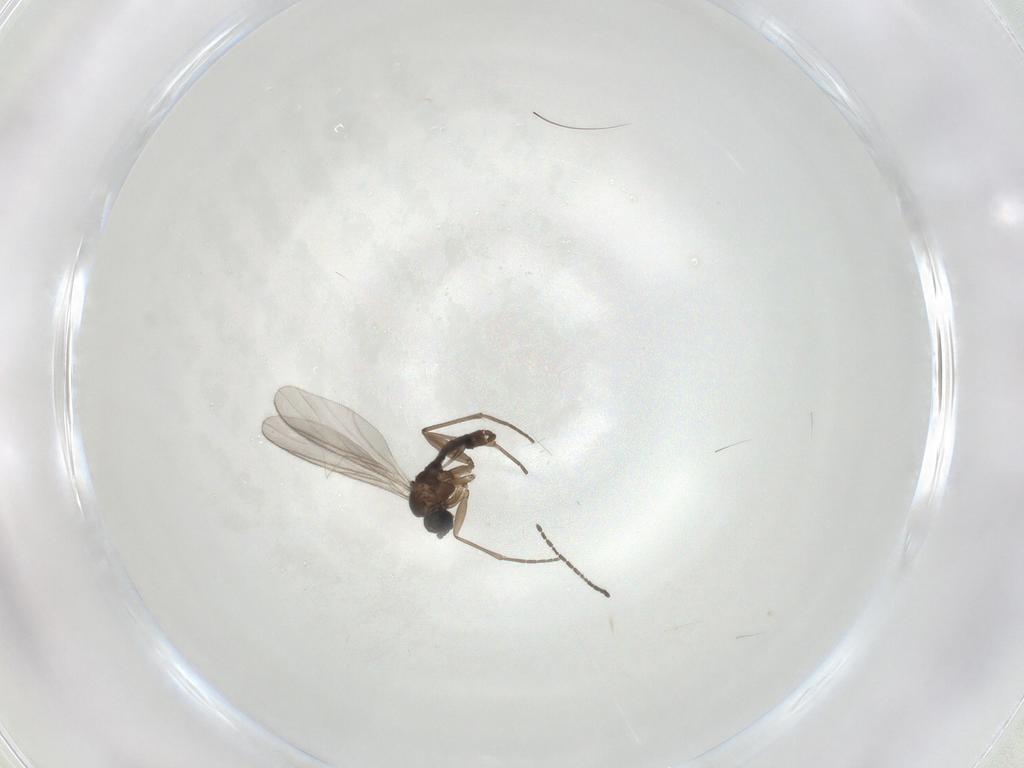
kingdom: Animalia
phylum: Arthropoda
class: Insecta
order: Diptera
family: Sciaridae
